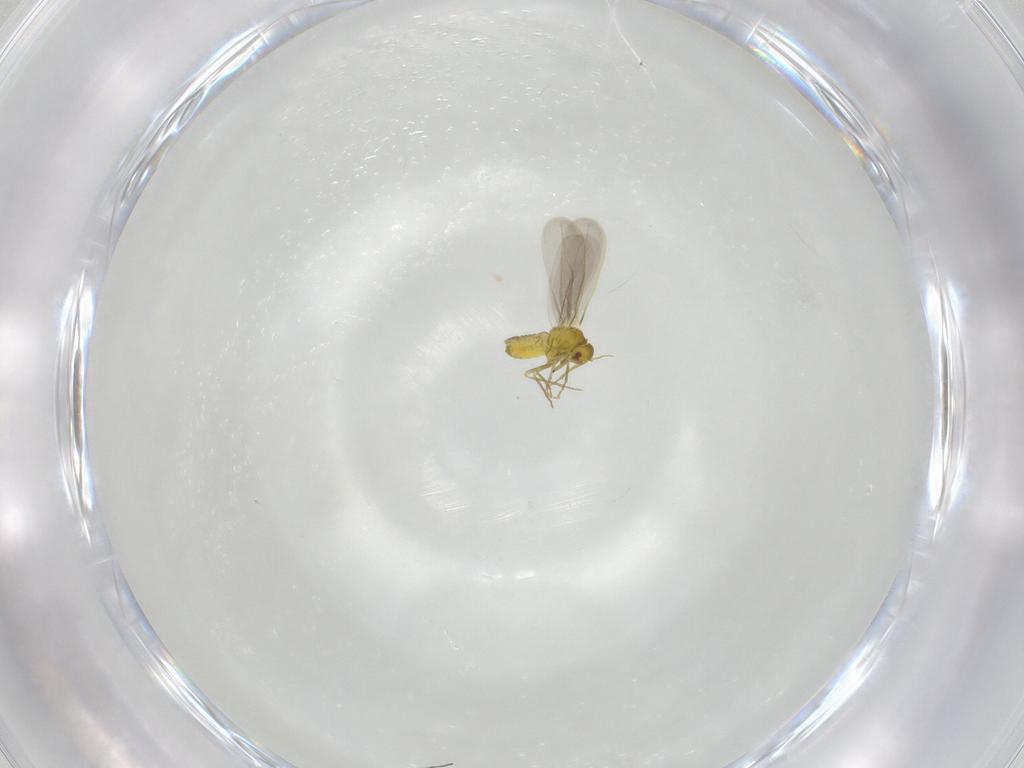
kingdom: Animalia
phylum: Arthropoda
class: Insecta
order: Hemiptera
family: Aleyrodidae
